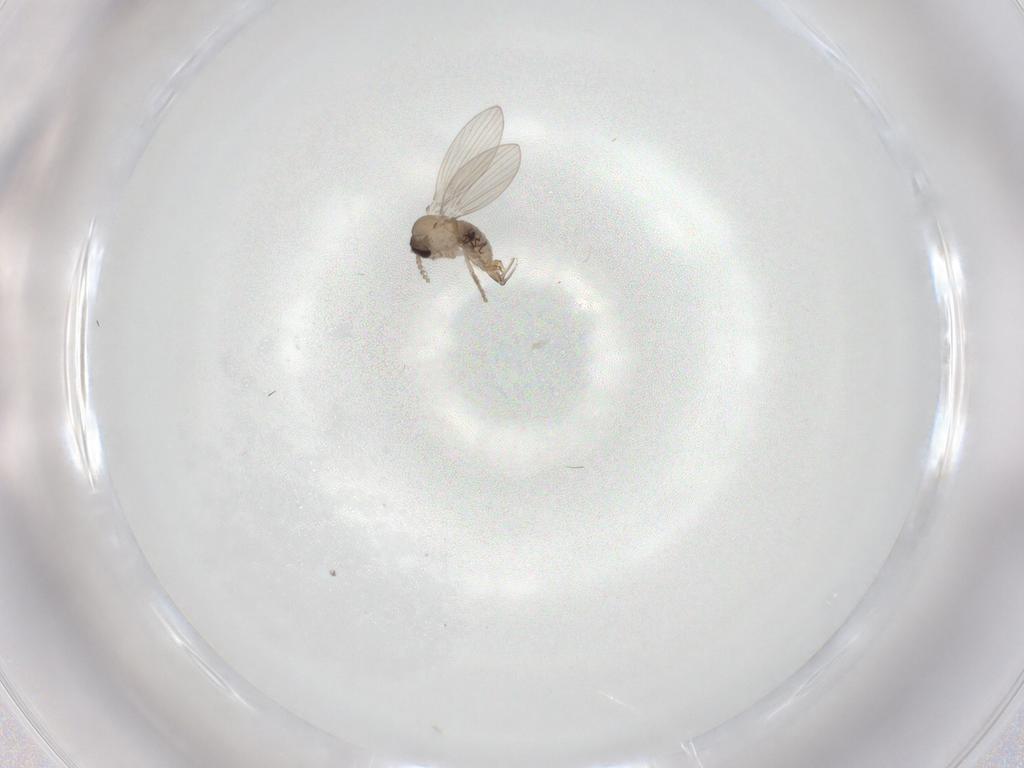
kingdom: Animalia
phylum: Arthropoda
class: Insecta
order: Diptera
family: Psychodidae
